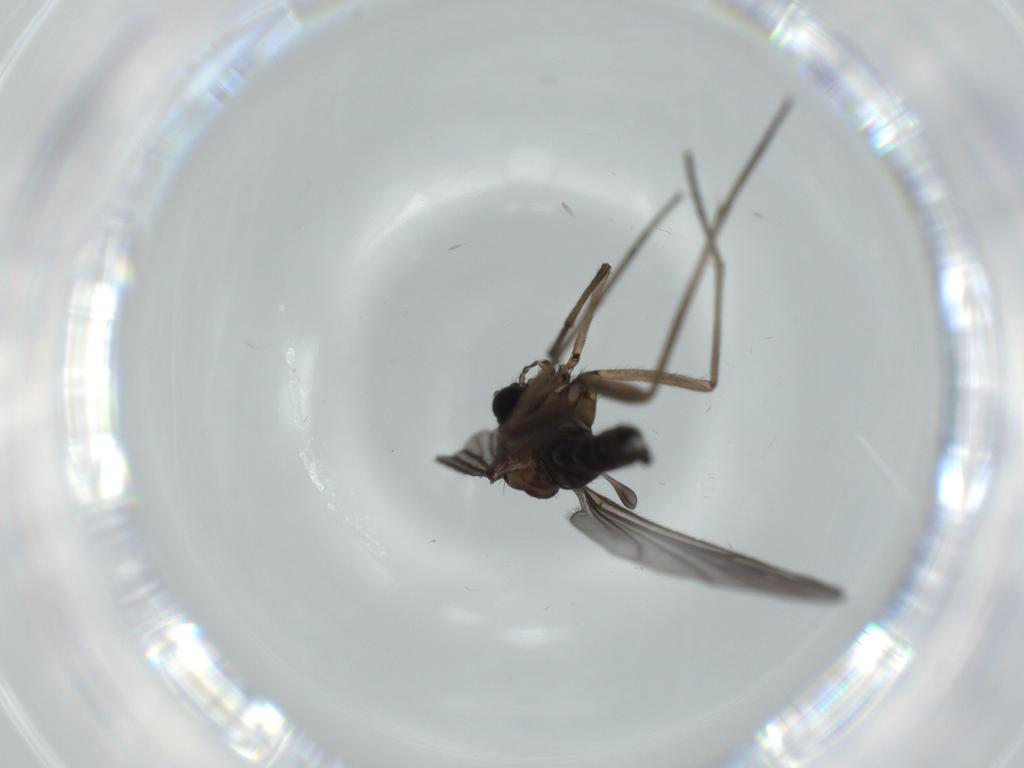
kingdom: Animalia
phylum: Arthropoda
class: Insecta
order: Diptera
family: Sciaridae
